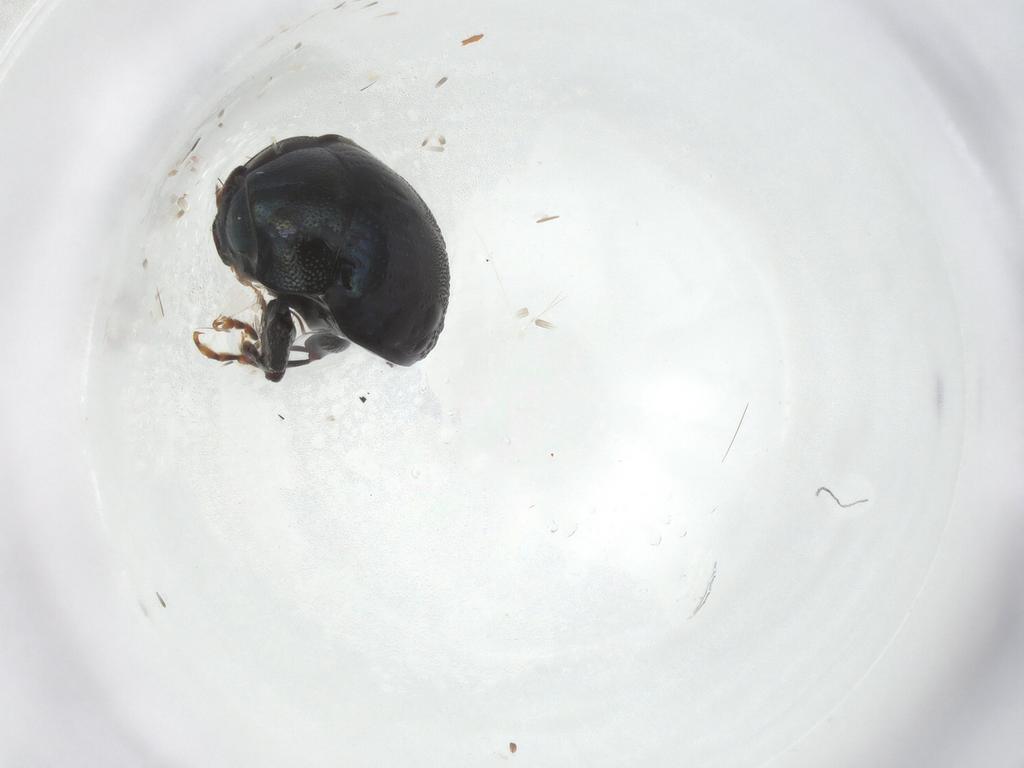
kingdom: Animalia
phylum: Arthropoda
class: Insecta
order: Coleoptera
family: Chrysomelidae
